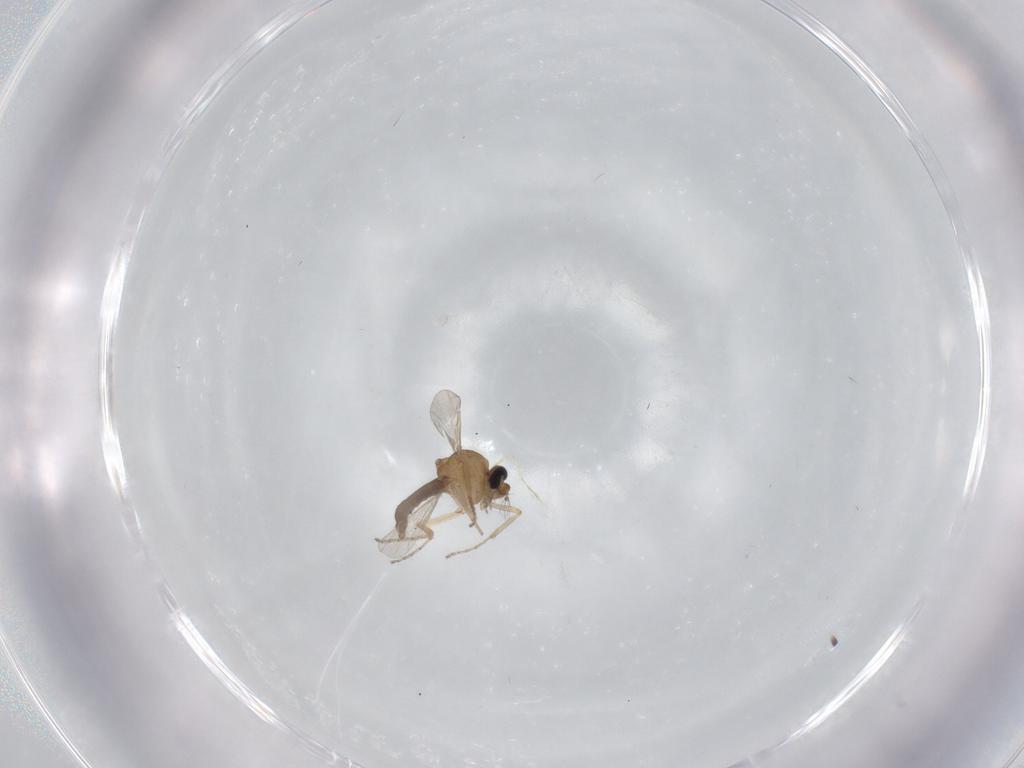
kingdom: Animalia
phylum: Arthropoda
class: Insecta
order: Diptera
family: Ceratopogonidae
